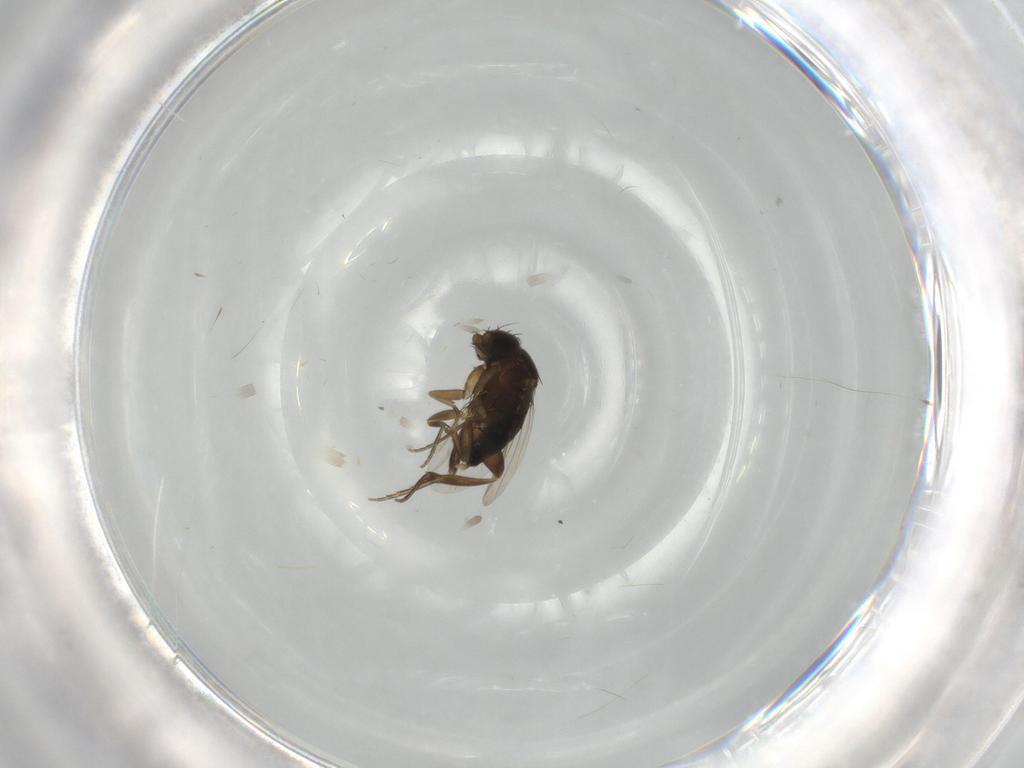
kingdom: Animalia
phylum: Arthropoda
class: Insecta
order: Diptera
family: Phoridae
